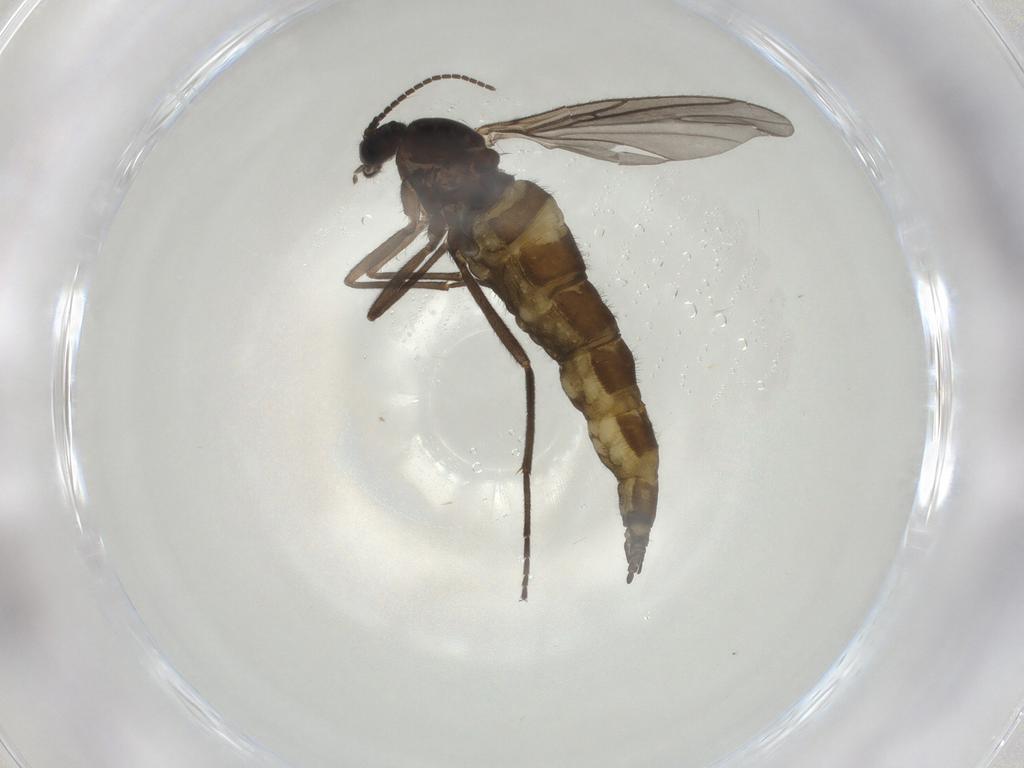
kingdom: Animalia
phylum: Arthropoda
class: Insecta
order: Diptera
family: Sciaridae
